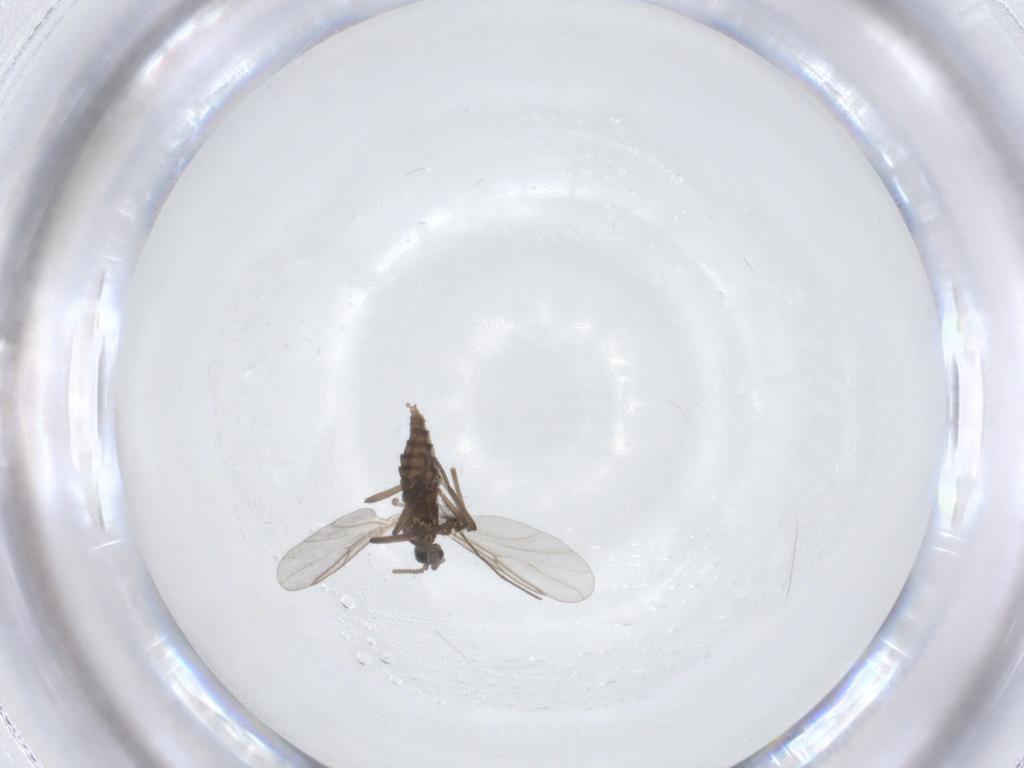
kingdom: Animalia
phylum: Arthropoda
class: Insecta
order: Diptera
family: Cecidomyiidae
